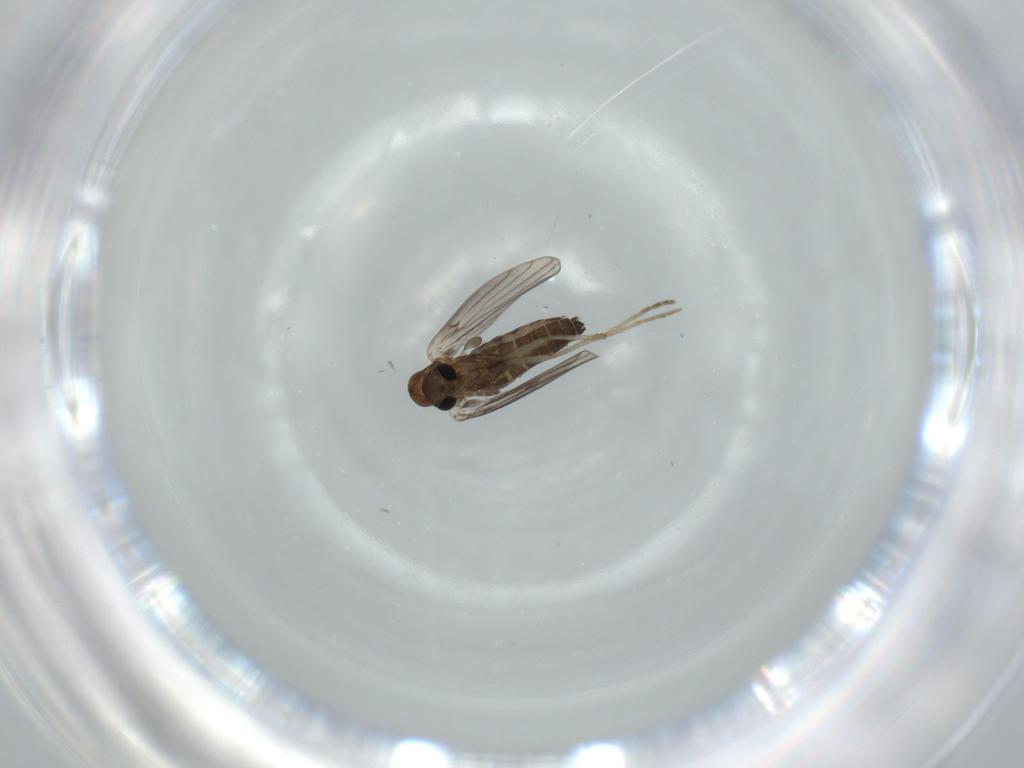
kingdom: Animalia
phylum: Arthropoda
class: Insecta
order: Diptera
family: Psychodidae
